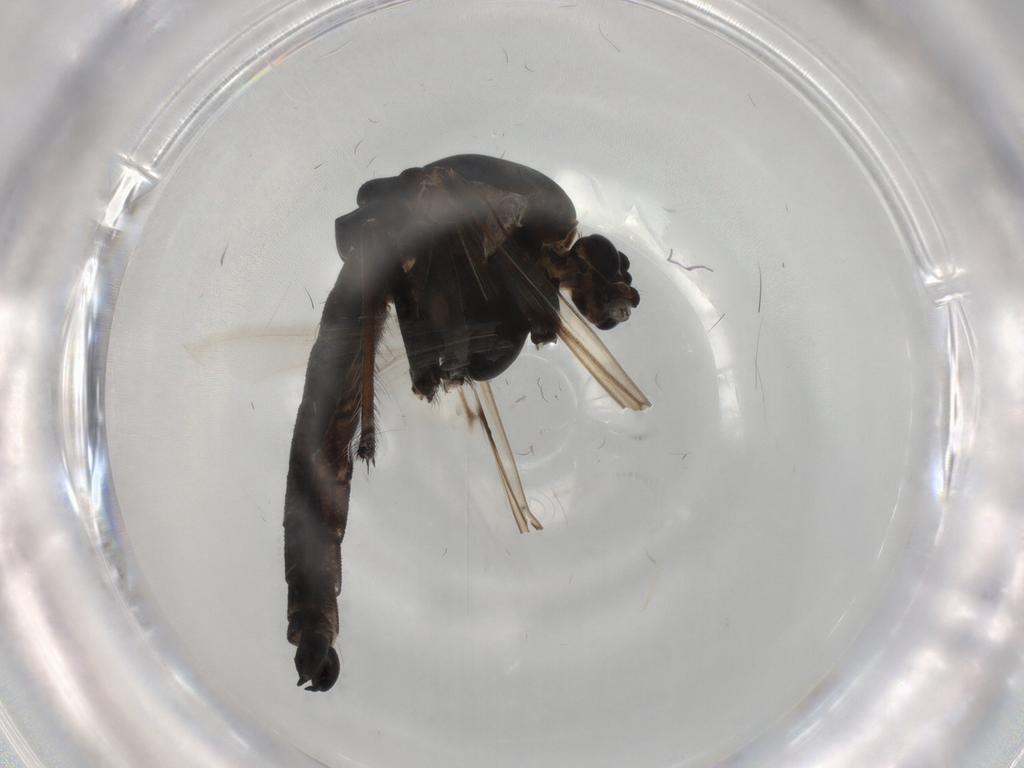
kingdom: Animalia
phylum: Arthropoda
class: Insecta
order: Diptera
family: Chironomidae
